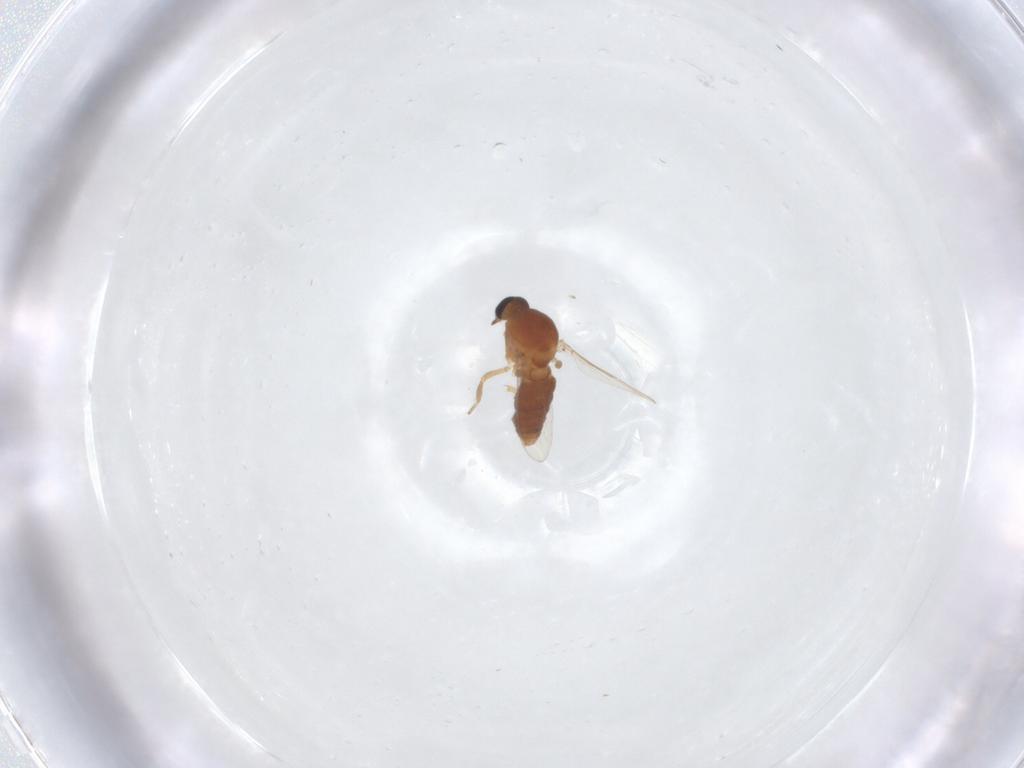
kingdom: Animalia
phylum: Arthropoda
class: Insecta
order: Diptera
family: Ceratopogonidae
